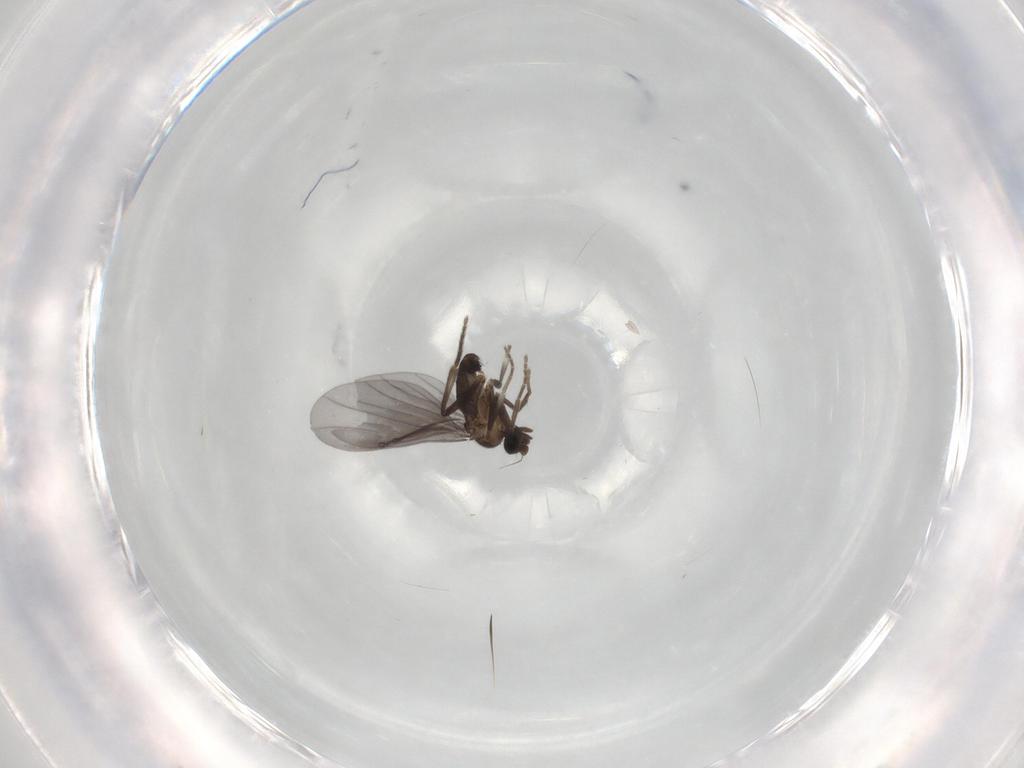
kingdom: Animalia
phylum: Arthropoda
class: Insecta
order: Diptera
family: Phoridae
